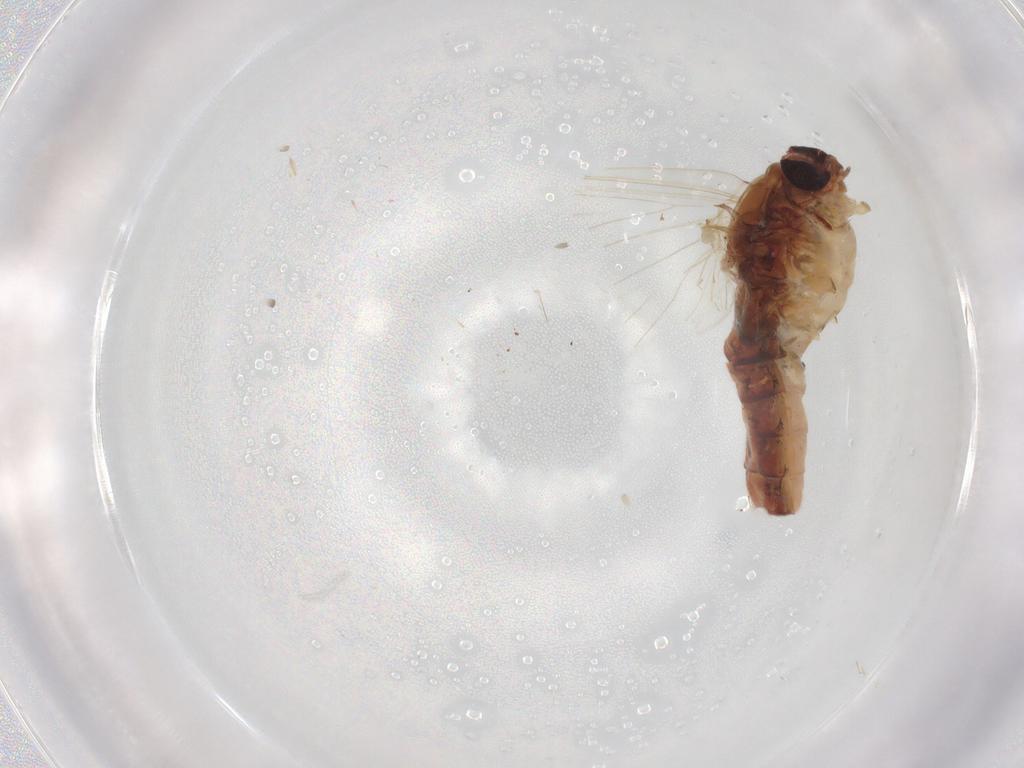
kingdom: Animalia
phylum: Arthropoda
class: Insecta
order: Ephemeroptera
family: Baetidae
